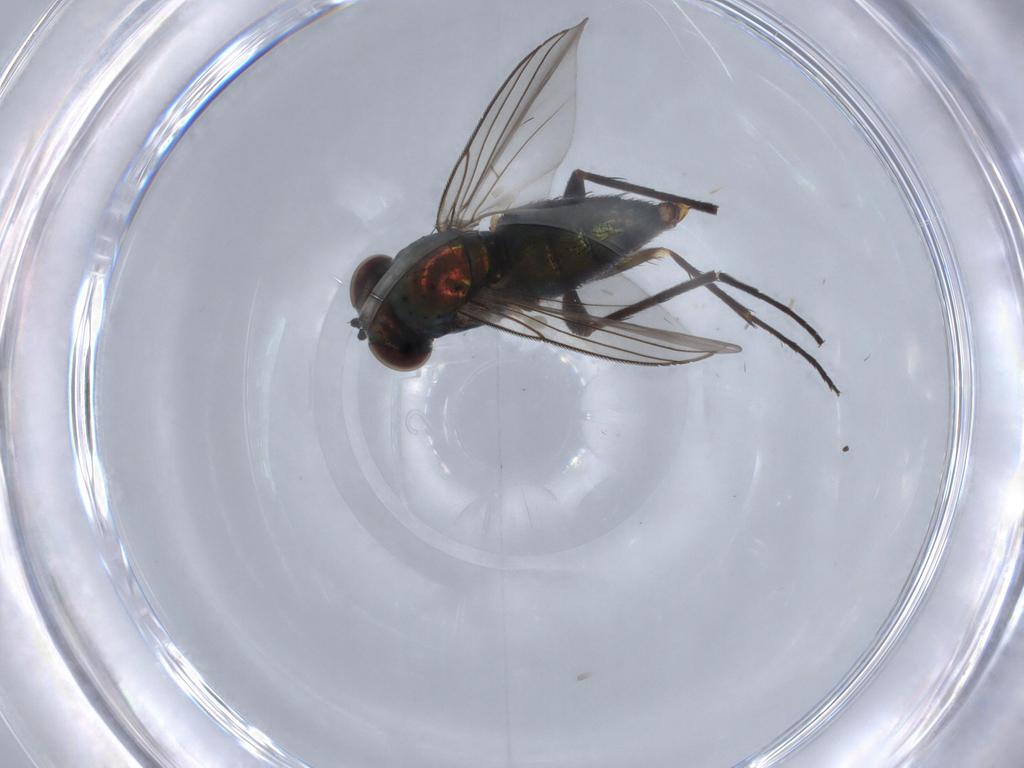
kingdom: Animalia
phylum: Arthropoda
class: Insecta
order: Diptera
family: Dolichopodidae
